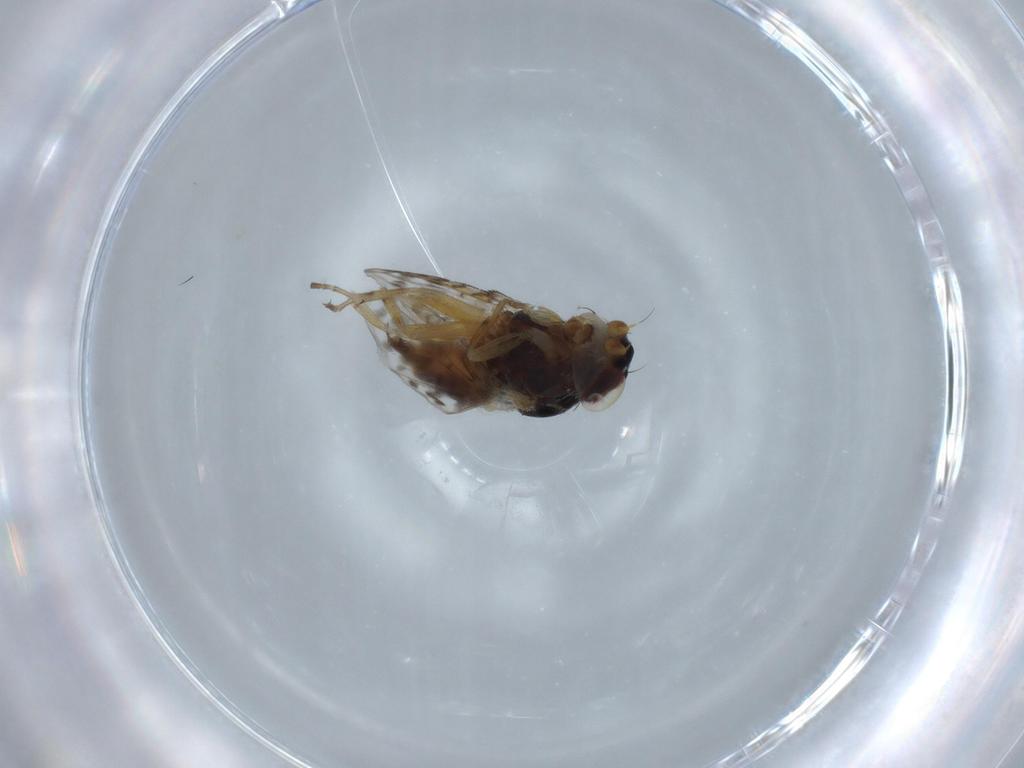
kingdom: Animalia
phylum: Arthropoda
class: Insecta
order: Diptera
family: Odiniidae
